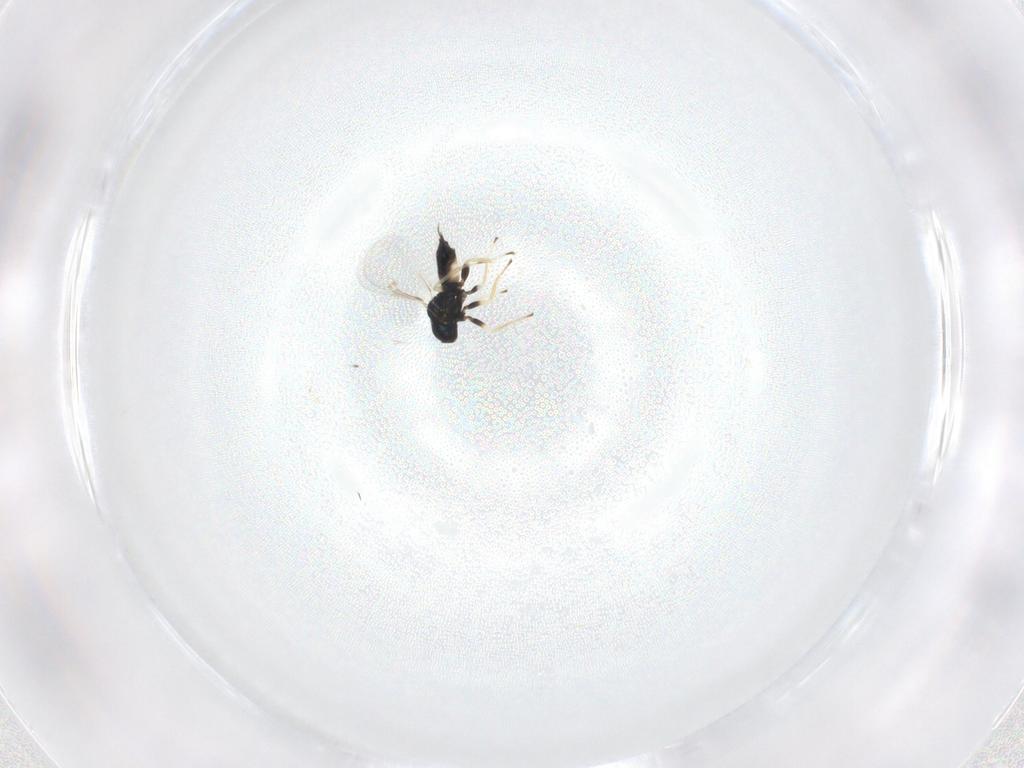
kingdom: Animalia
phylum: Arthropoda
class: Insecta
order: Hymenoptera
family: Eulophidae
